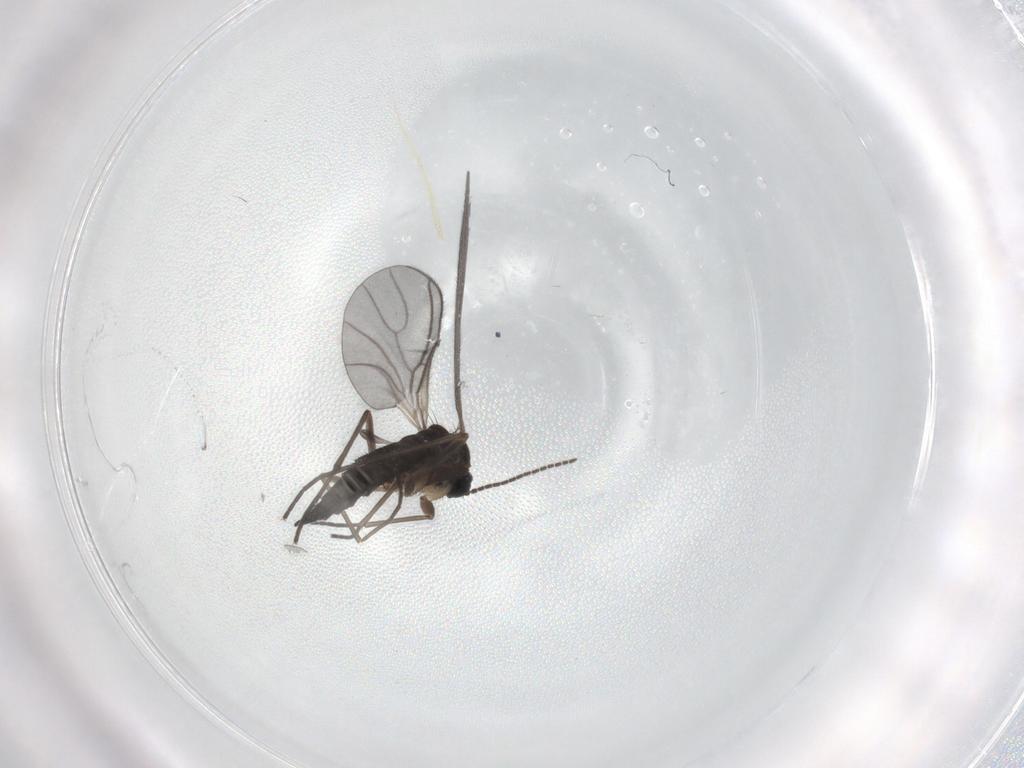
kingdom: Animalia
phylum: Arthropoda
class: Insecta
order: Diptera
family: Sciaridae
